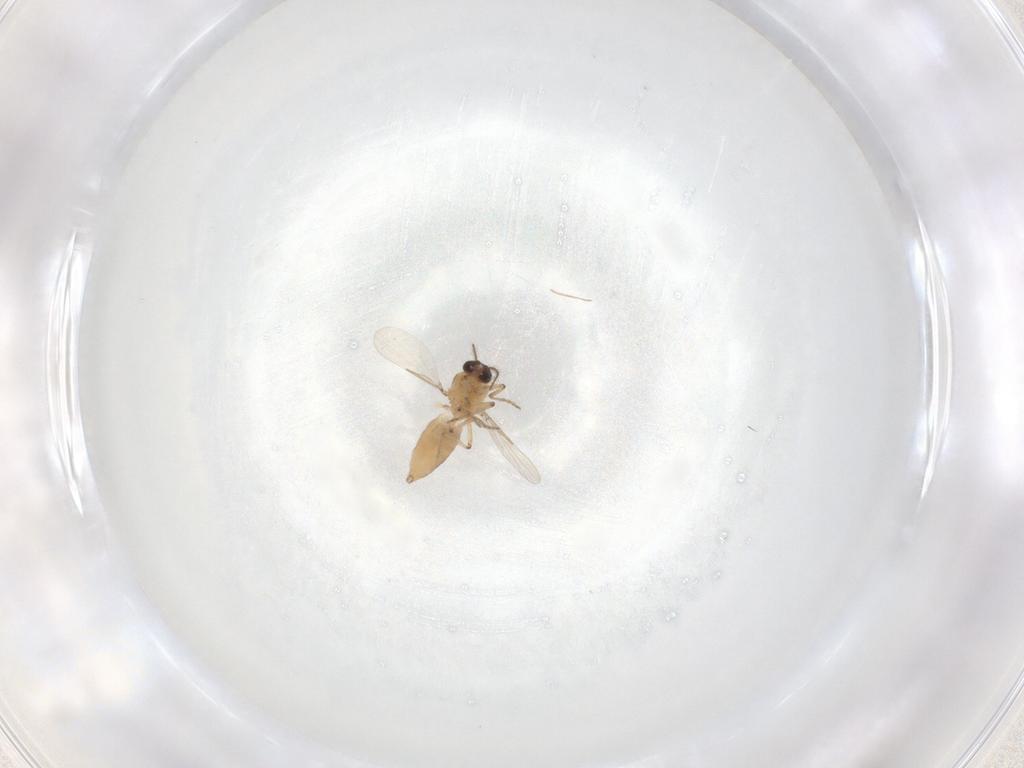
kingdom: Animalia
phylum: Arthropoda
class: Insecta
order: Diptera
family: Ceratopogonidae
